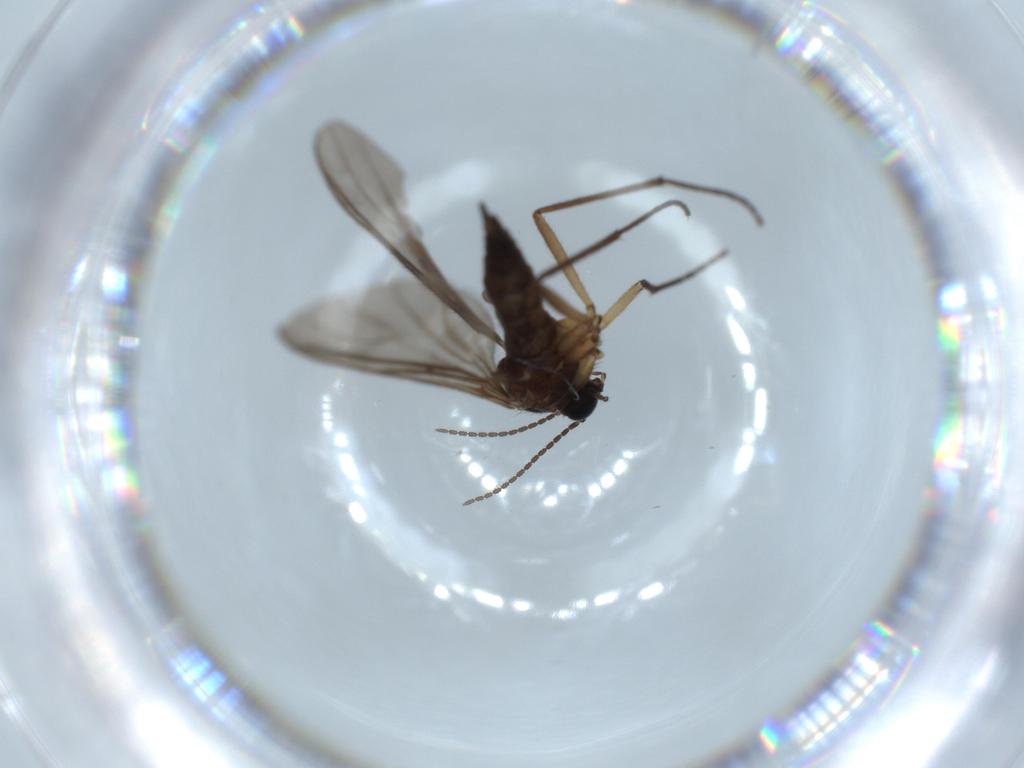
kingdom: Animalia
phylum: Arthropoda
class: Insecta
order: Diptera
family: Sciaridae
